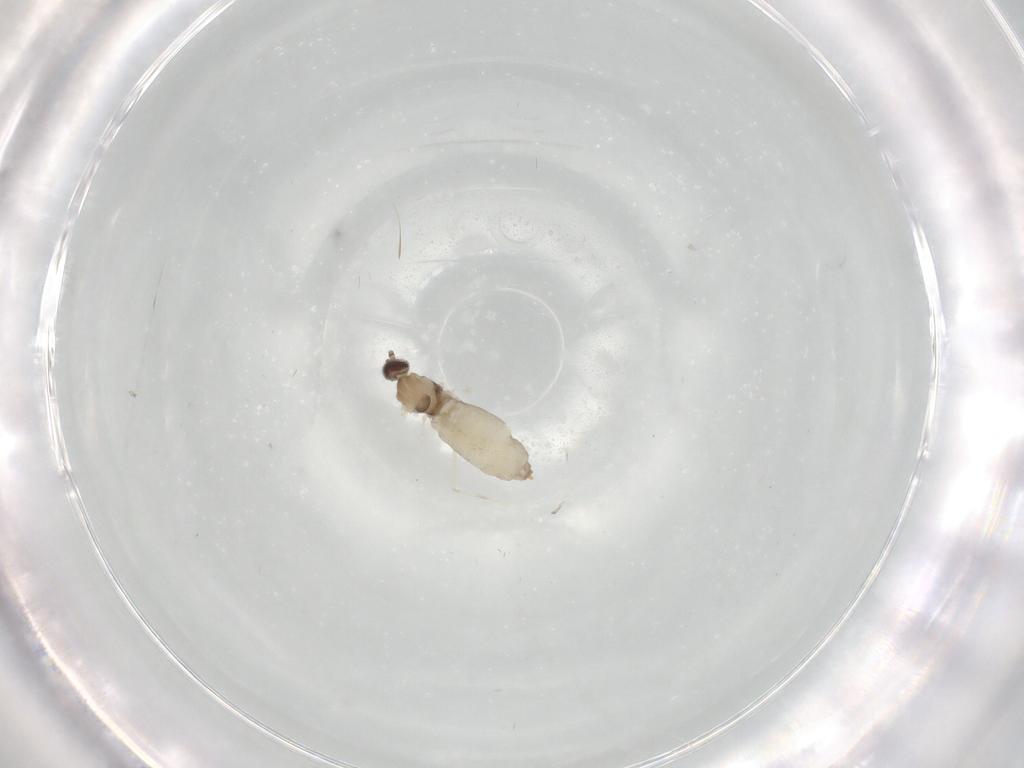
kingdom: Animalia
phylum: Arthropoda
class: Insecta
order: Diptera
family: Cecidomyiidae
